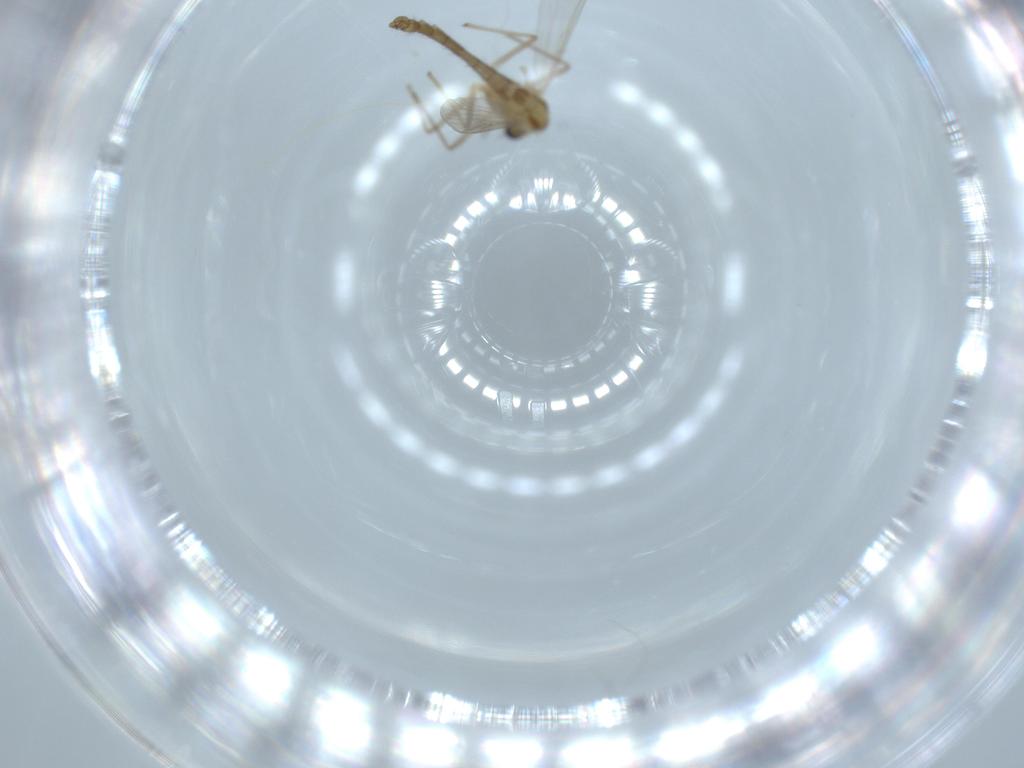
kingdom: Animalia
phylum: Arthropoda
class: Insecta
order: Diptera
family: Chironomidae
